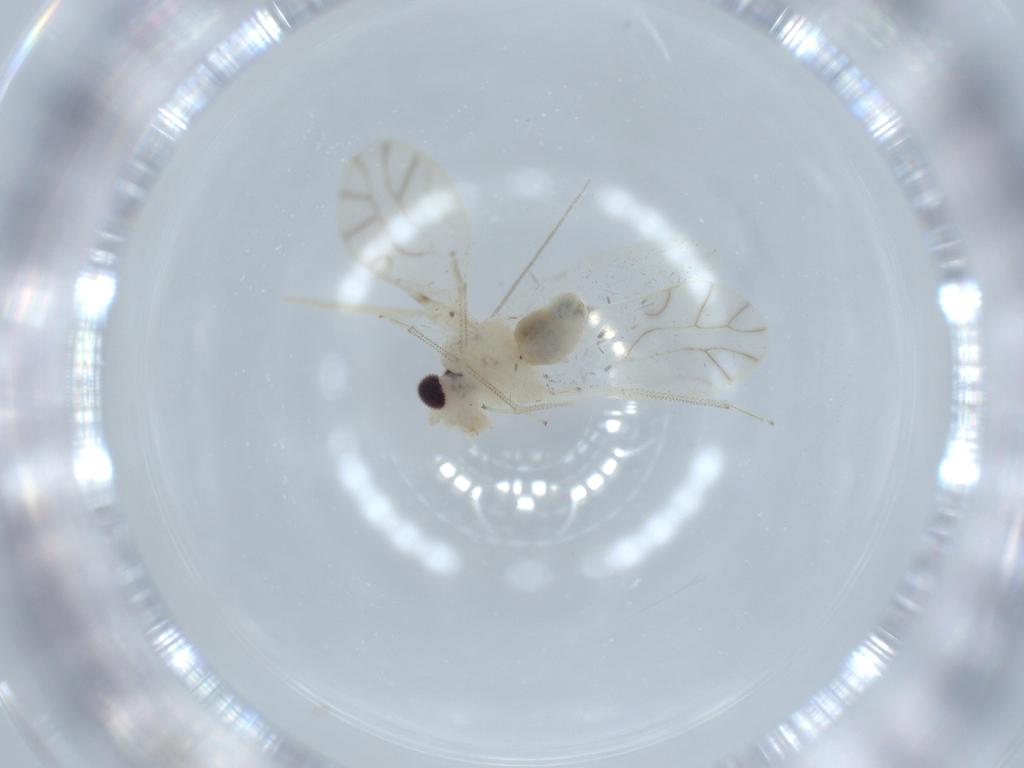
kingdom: Animalia
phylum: Arthropoda
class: Insecta
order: Psocodea
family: Caeciliusidae
